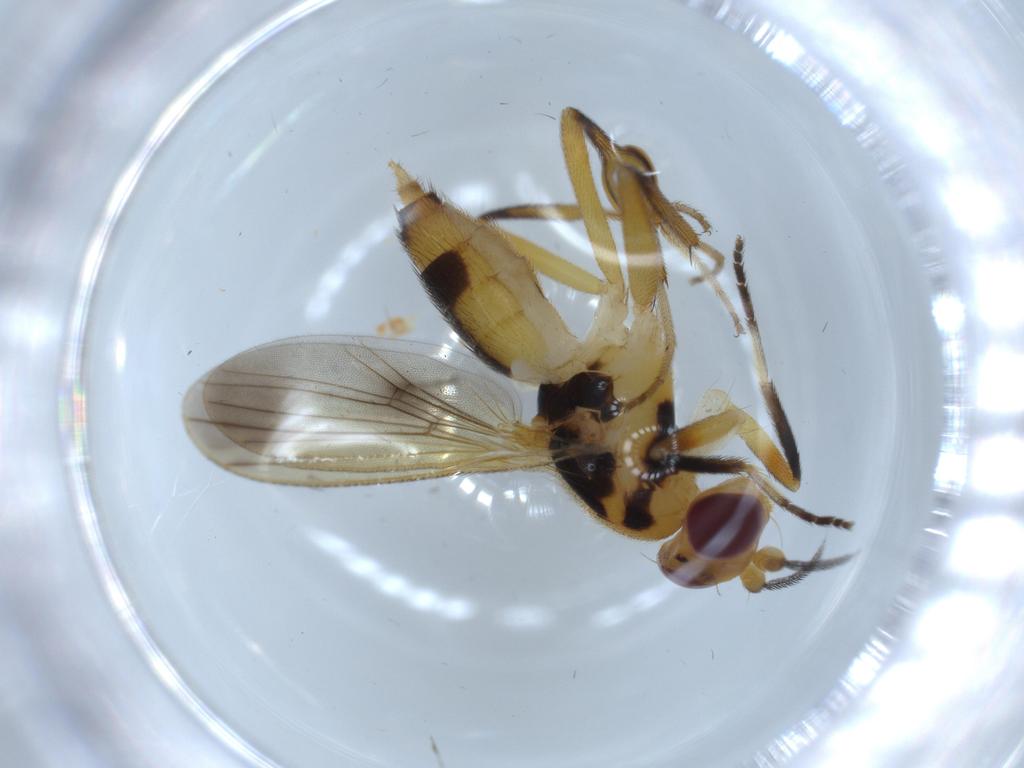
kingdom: Animalia
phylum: Arthropoda
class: Insecta
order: Diptera
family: Clusiidae
